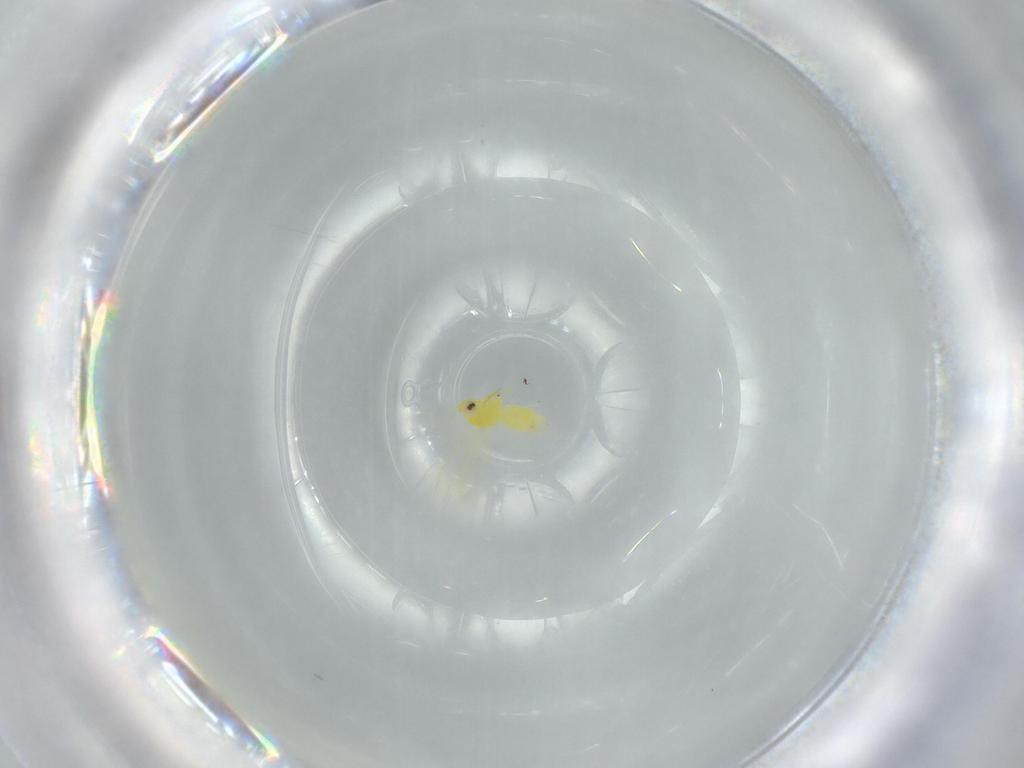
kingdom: Animalia
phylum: Arthropoda
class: Insecta
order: Hemiptera
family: Aleyrodidae
